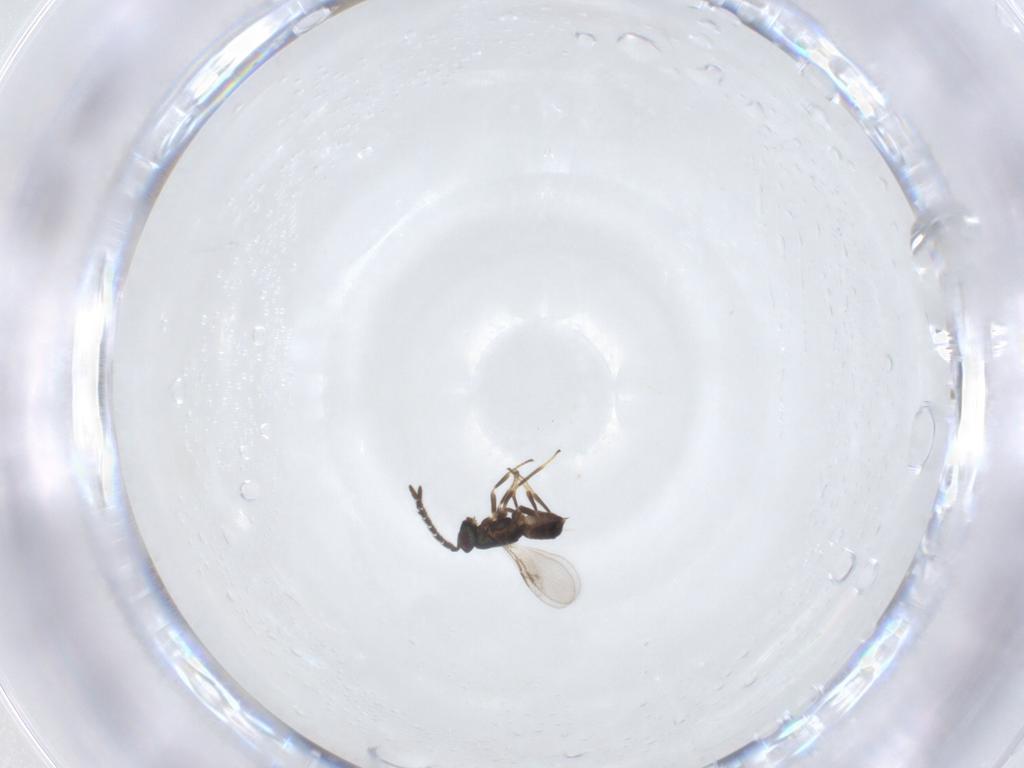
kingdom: Animalia
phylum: Arthropoda
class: Insecta
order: Hymenoptera
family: Encyrtidae
